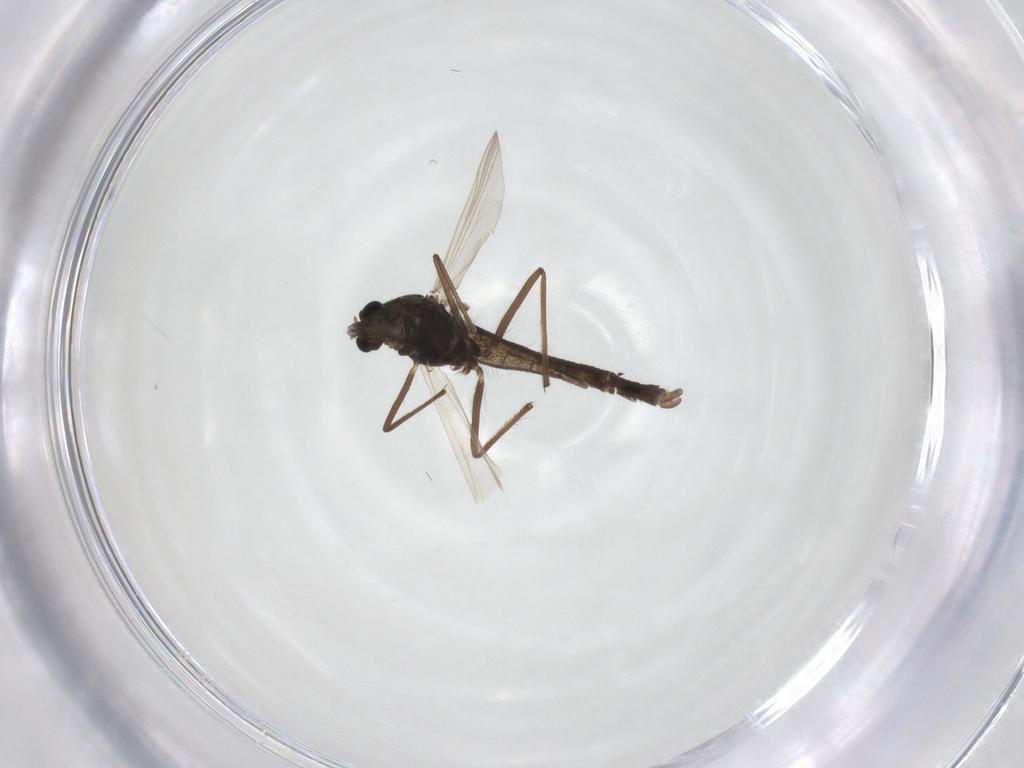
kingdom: Animalia
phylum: Arthropoda
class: Insecta
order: Diptera
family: Chironomidae
